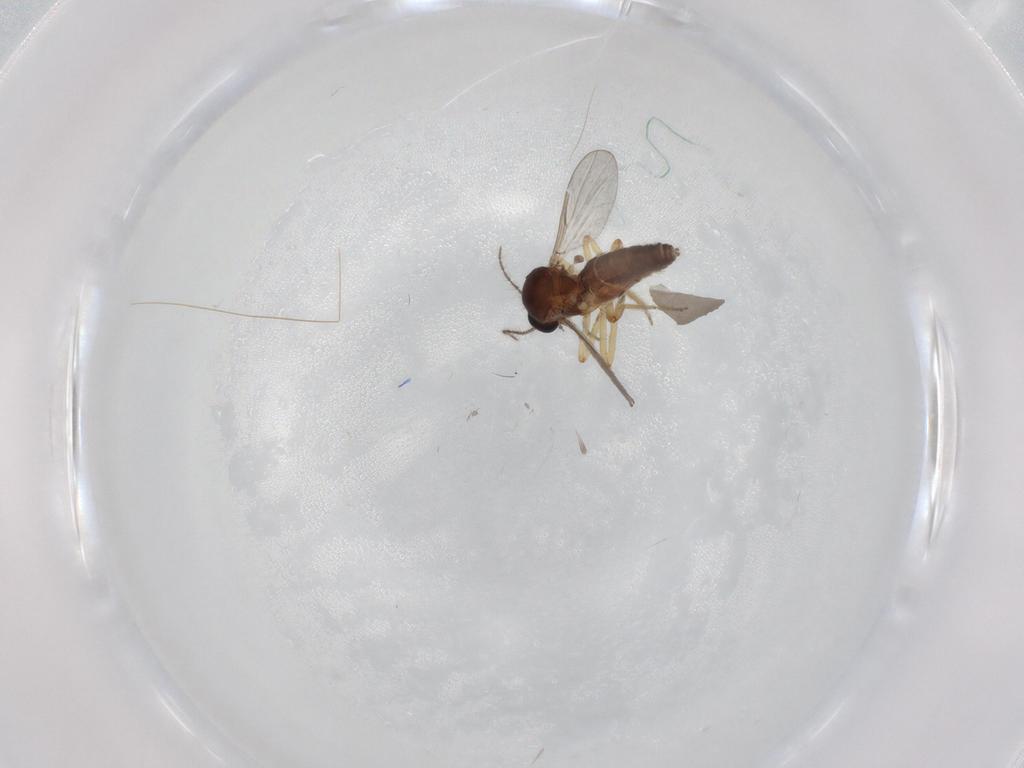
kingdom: Animalia
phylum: Arthropoda
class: Insecta
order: Diptera
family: Ceratopogonidae
